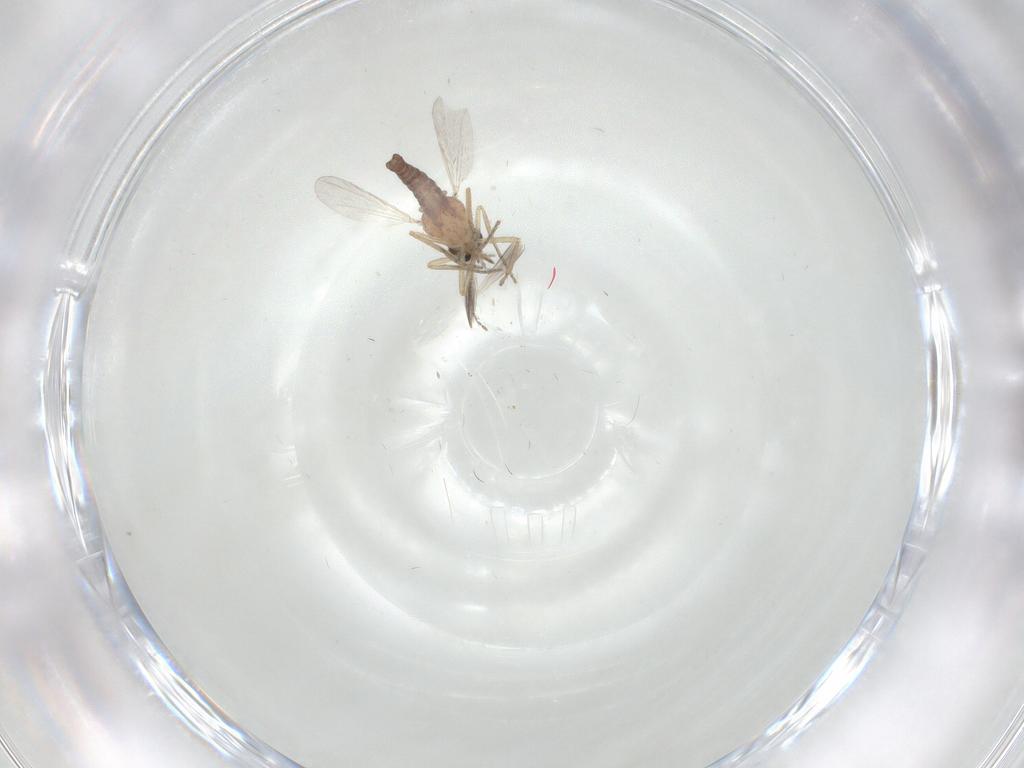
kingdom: Animalia
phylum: Arthropoda
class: Insecta
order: Diptera
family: Ceratopogonidae
